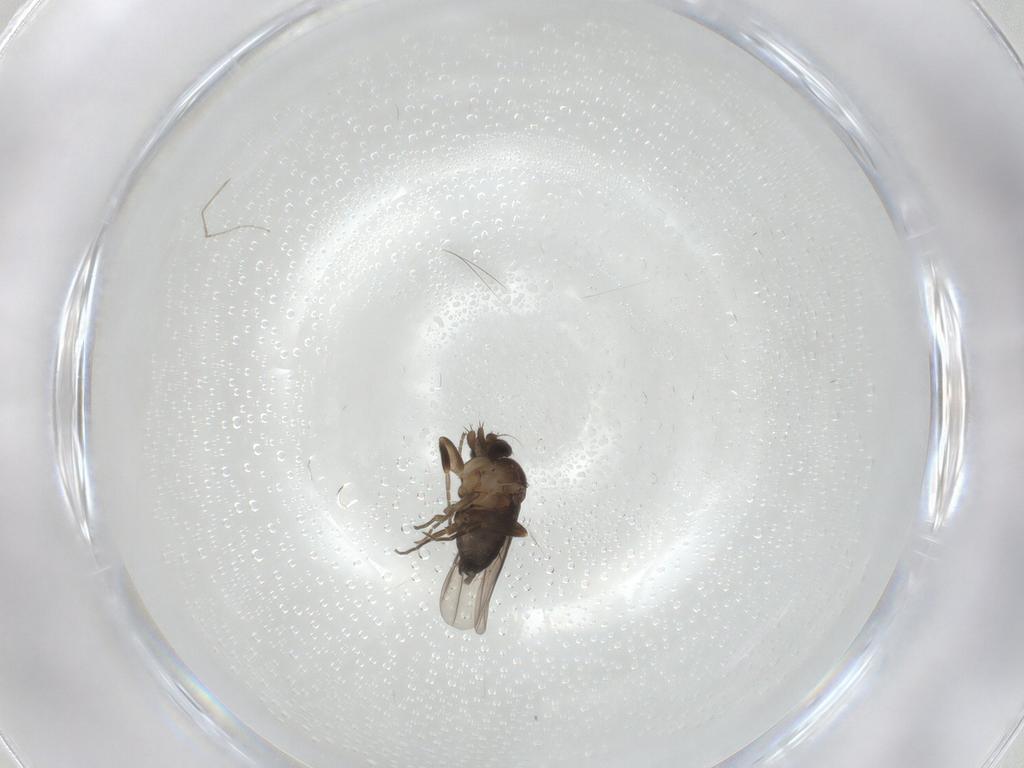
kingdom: Animalia
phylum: Arthropoda
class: Insecta
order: Diptera
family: Phoridae
